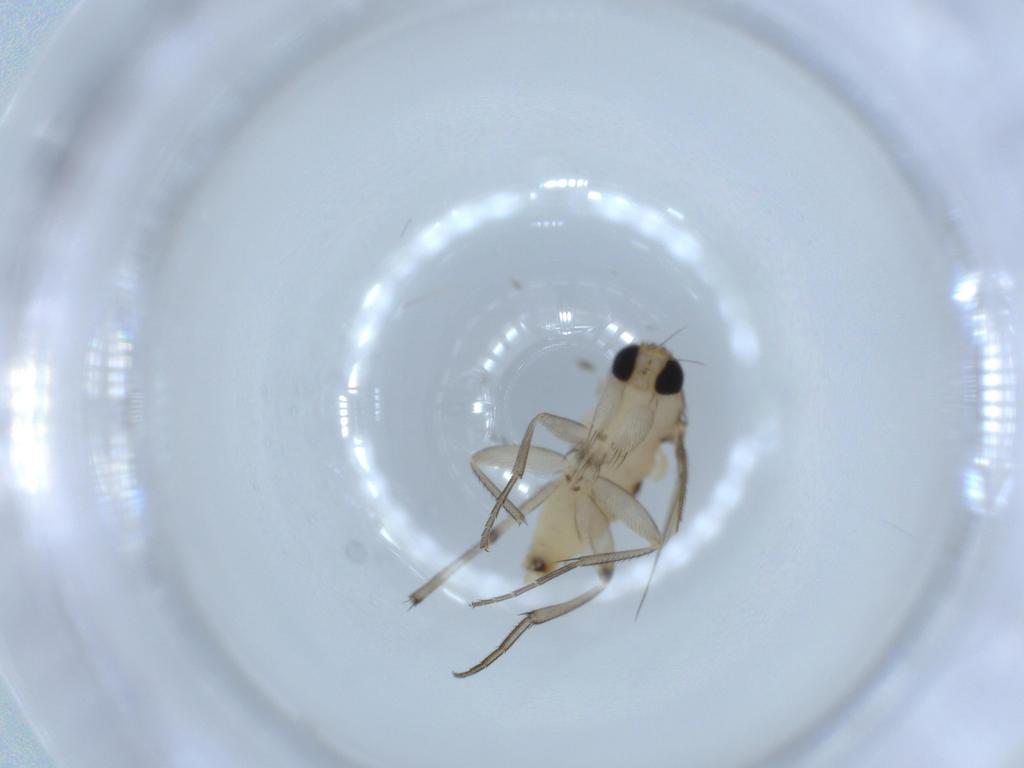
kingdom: Animalia
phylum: Arthropoda
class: Insecta
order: Diptera
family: Hybotidae
